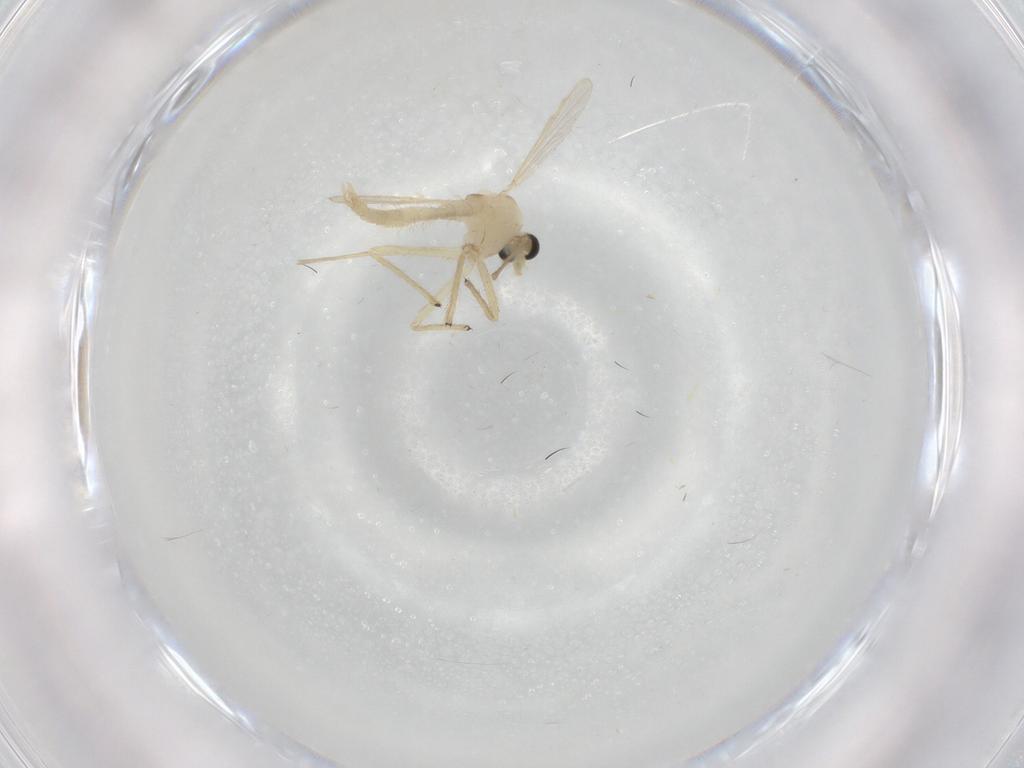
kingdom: Animalia
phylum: Arthropoda
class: Insecta
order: Diptera
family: Chironomidae
